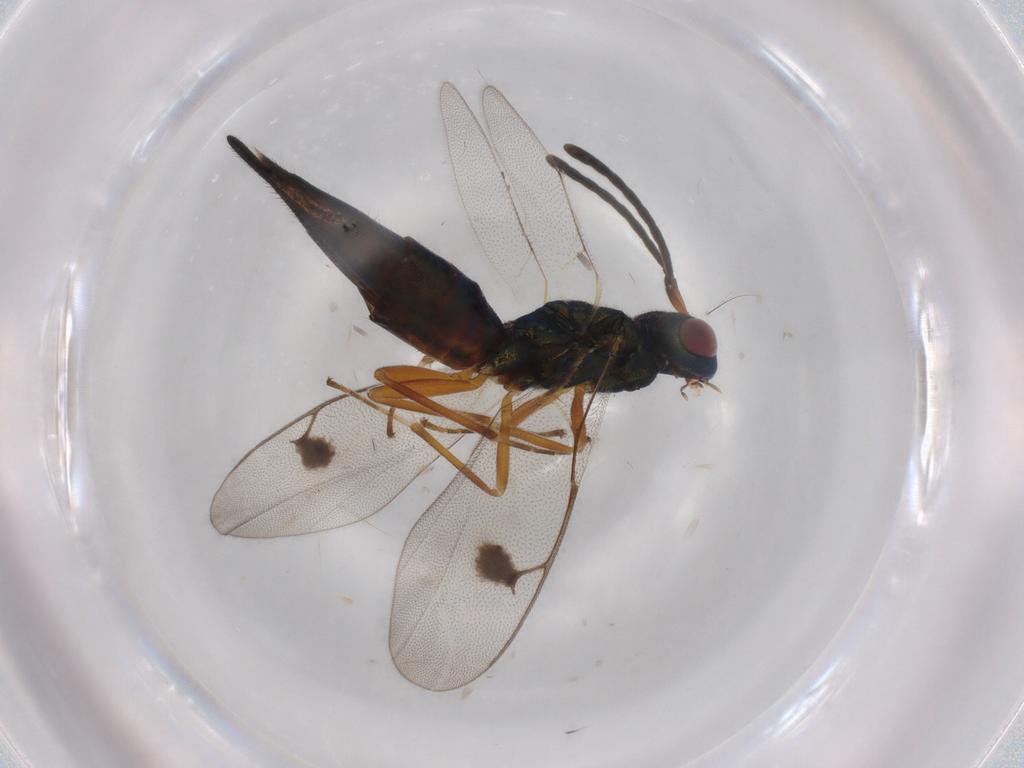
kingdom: Animalia
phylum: Arthropoda
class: Insecta
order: Hymenoptera
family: Pteromalidae
